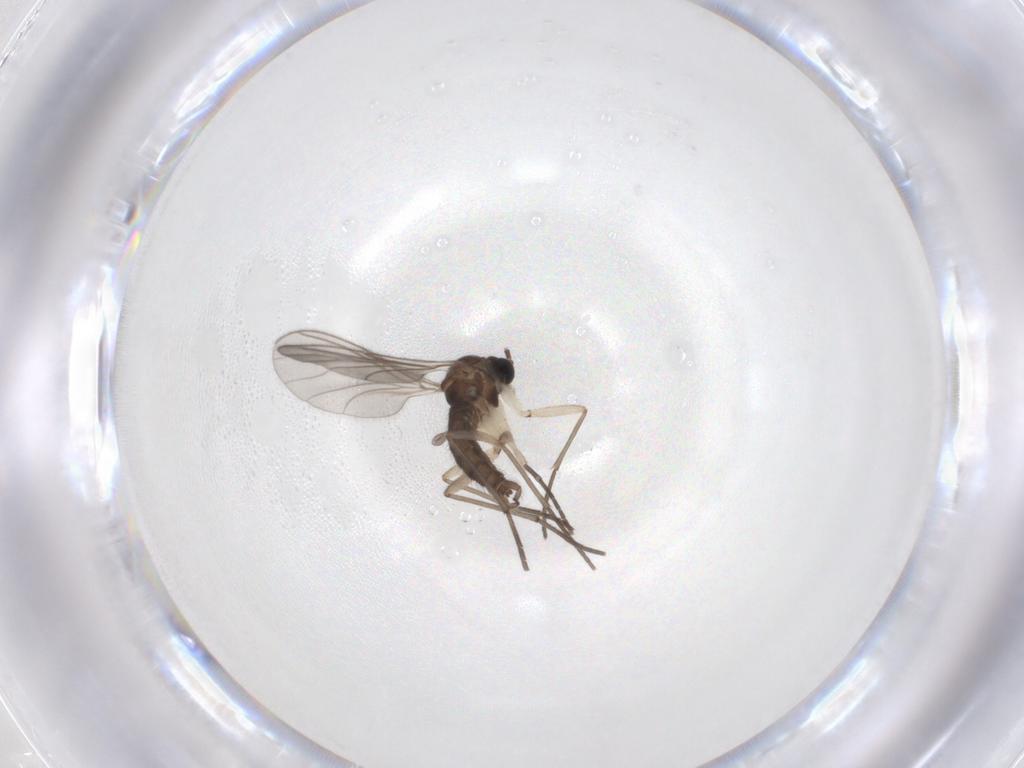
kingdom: Animalia
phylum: Arthropoda
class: Insecta
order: Diptera
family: Sciaridae
